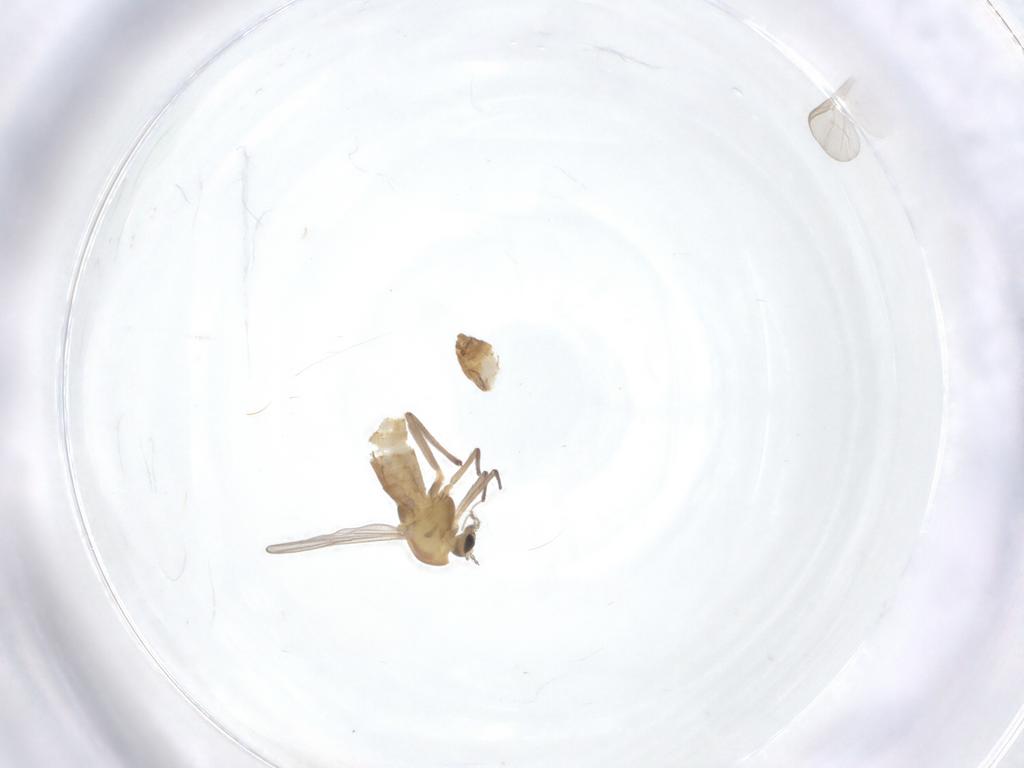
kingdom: Animalia
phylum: Arthropoda
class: Insecta
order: Diptera
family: Chironomidae
